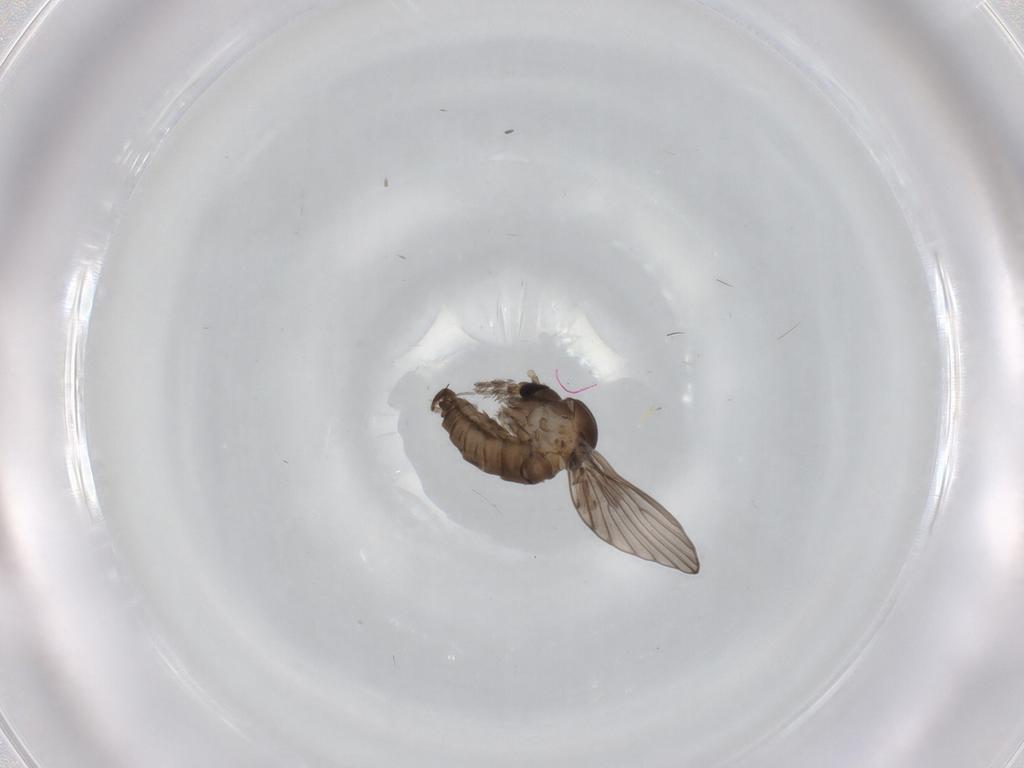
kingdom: Animalia
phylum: Arthropoda
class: Insecta
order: Diptera
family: Psychodidae
